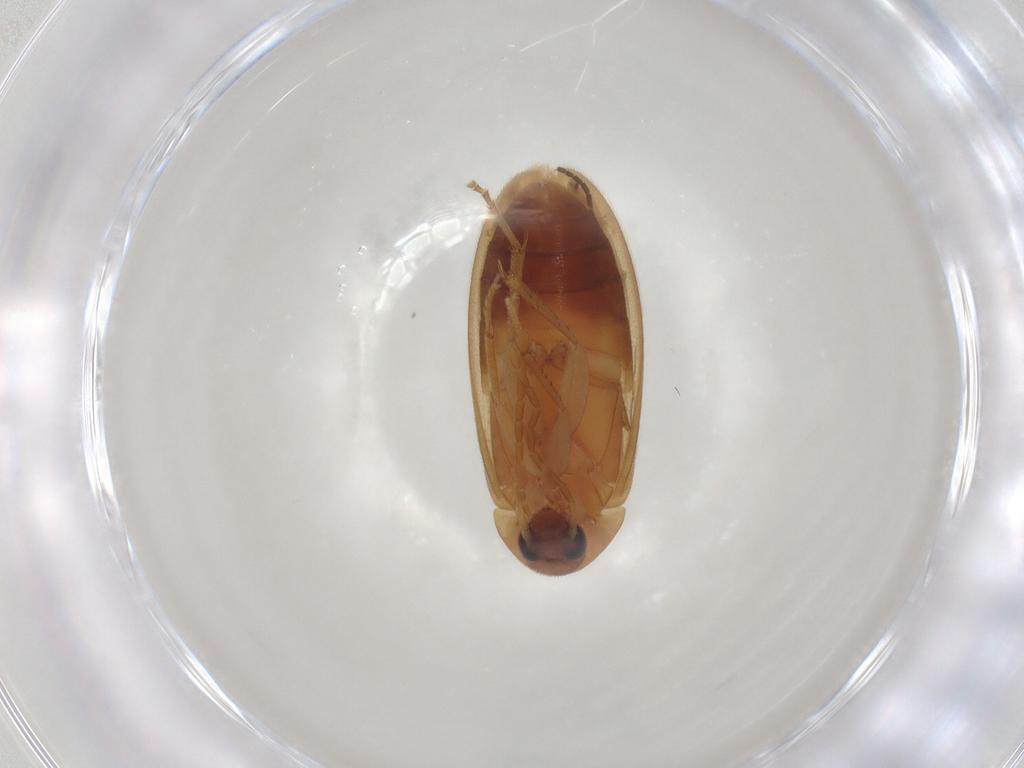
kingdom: Animalia
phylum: Arthropoda
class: Insecta
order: Coleoptera
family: Scraptiidae
